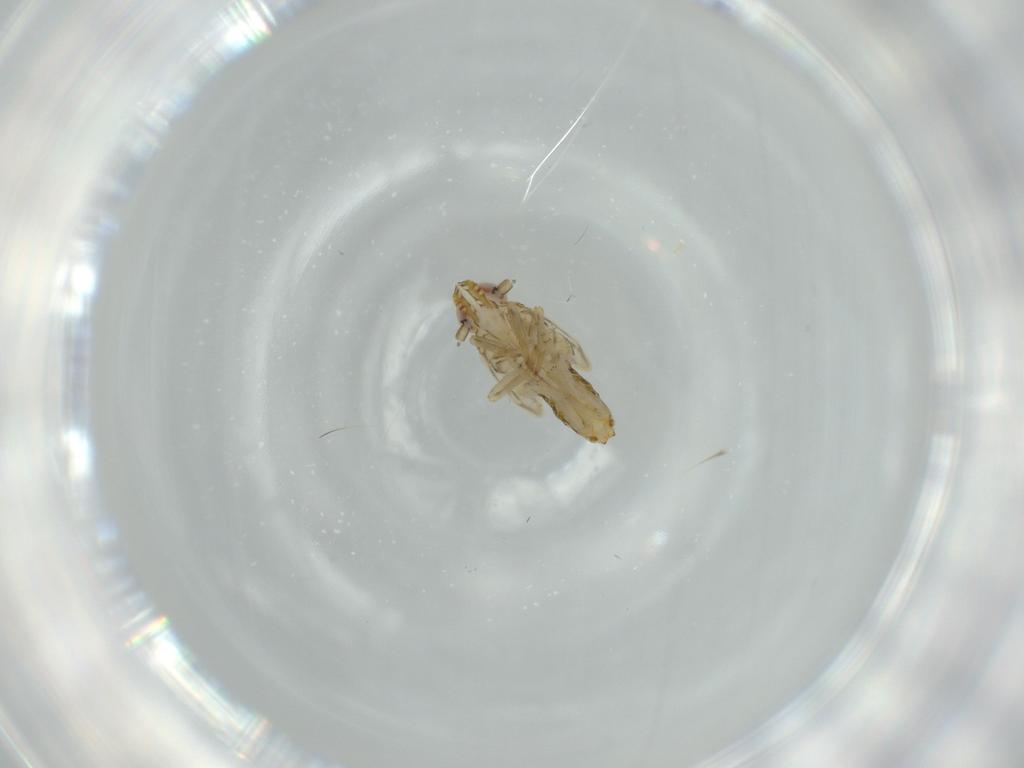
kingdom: Animalia
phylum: Arthropoda
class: Insecta
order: Hemiptera
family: Delphacidae
